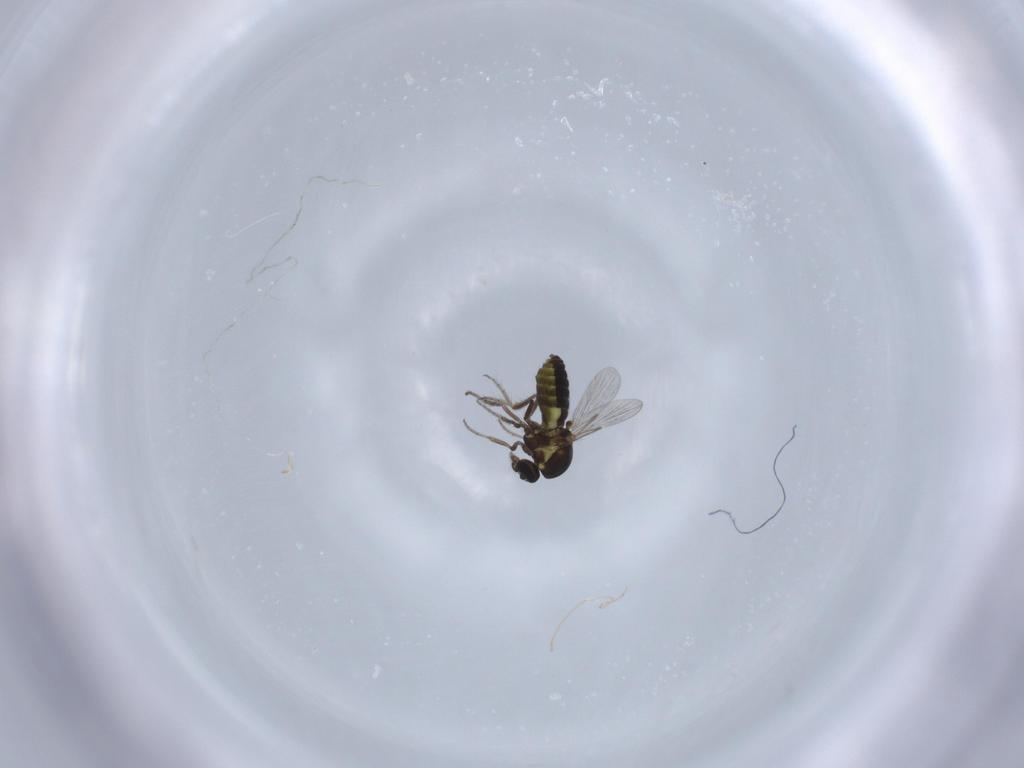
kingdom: Animalia
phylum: Arthropoda
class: Insecta
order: Diptera
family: Ceratopogonidae
